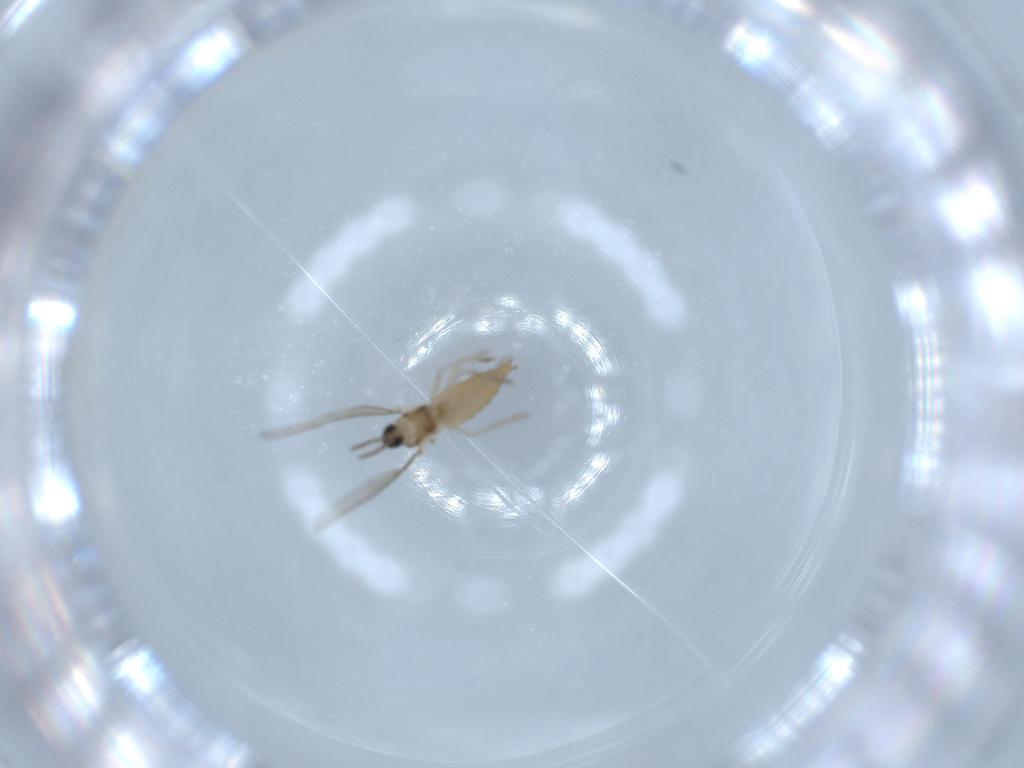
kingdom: Animalia
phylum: Arthropoda
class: Insecta
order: Diptera
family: Cecidomyiidae
